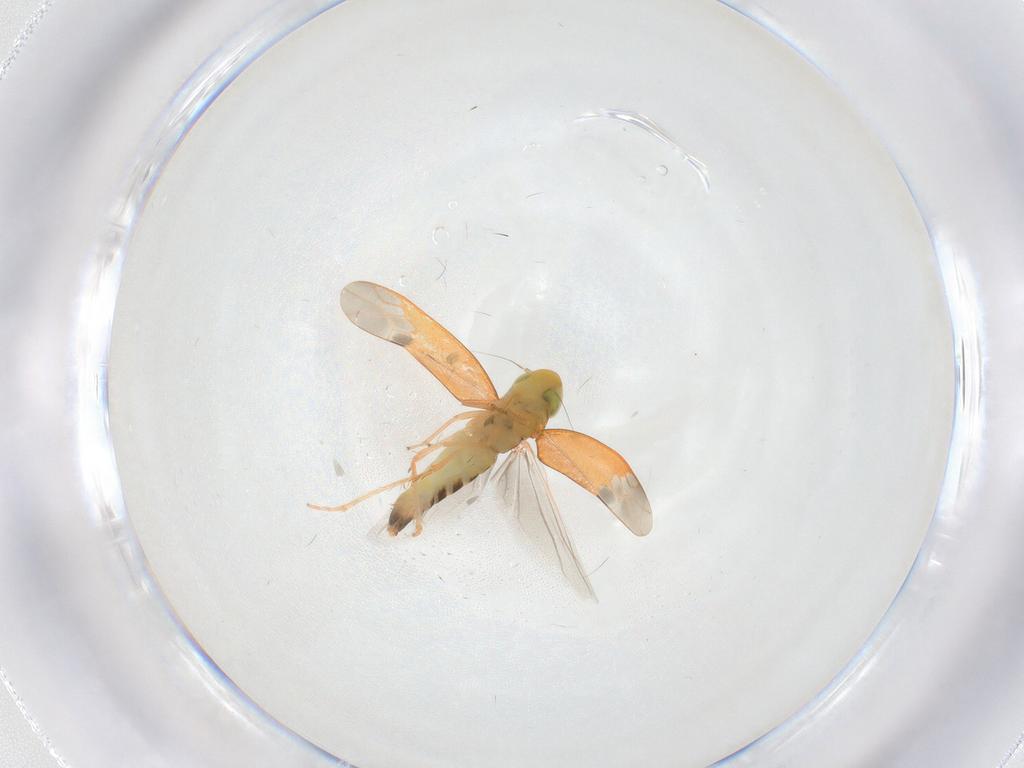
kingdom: Animalia
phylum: Arthropoda
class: Insecta
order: Hemiptera
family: Cicadellidae
